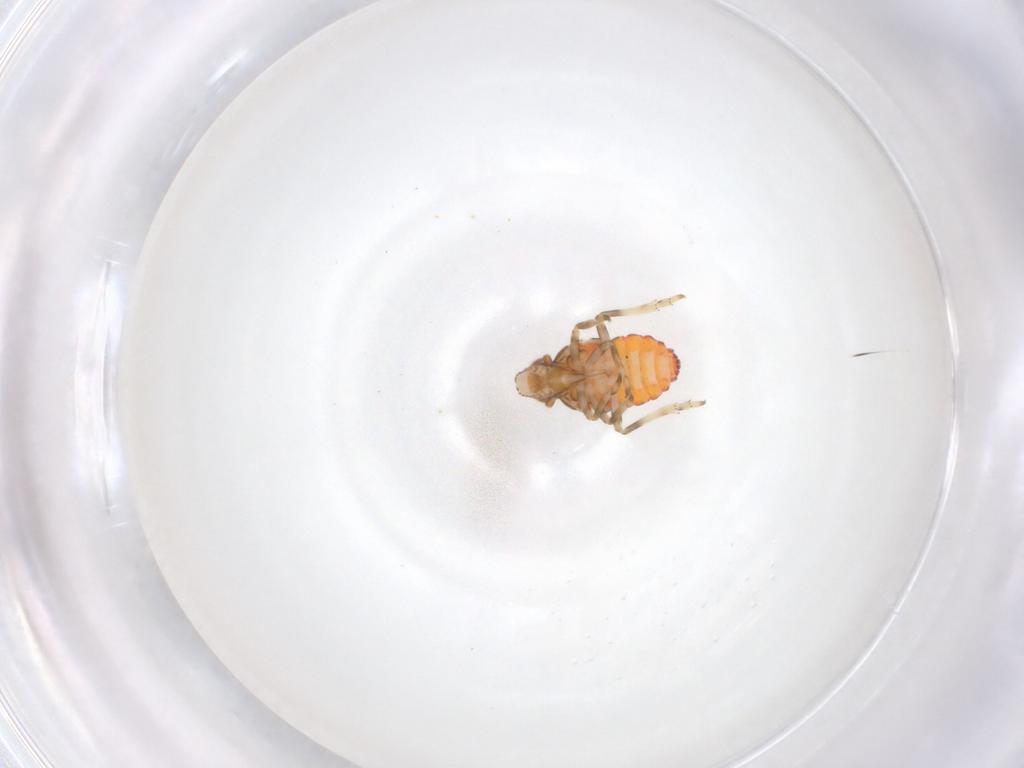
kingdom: Animalia
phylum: Arthropoda
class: Insecta
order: Hemiptera
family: Tropiduchidae
